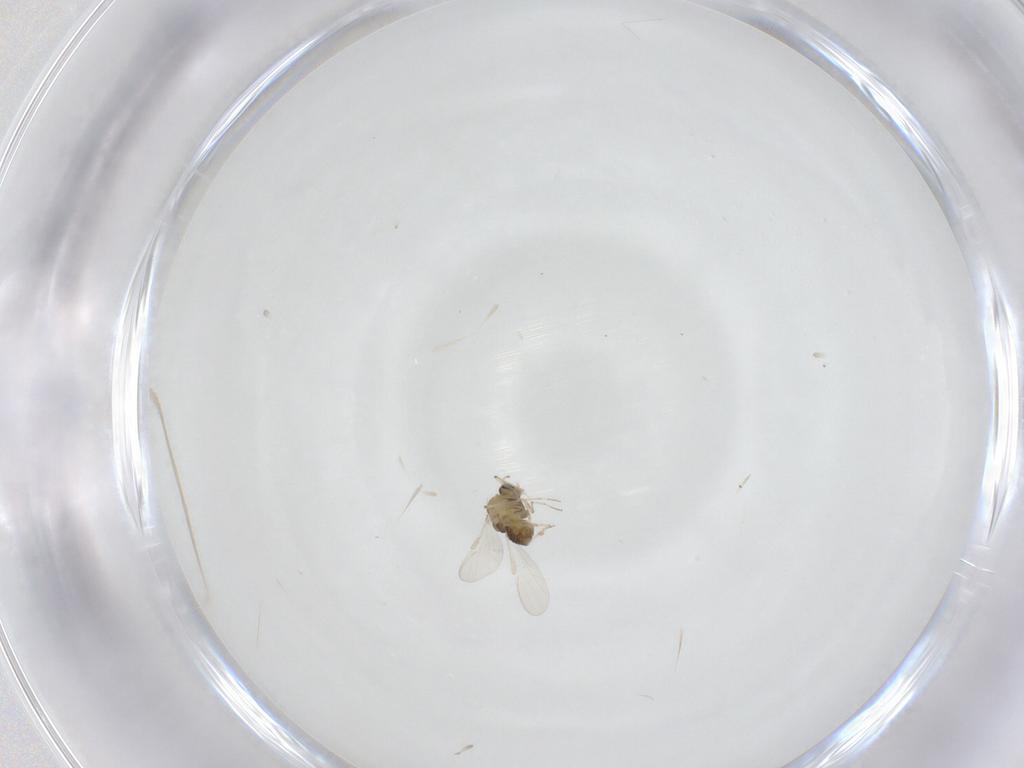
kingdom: Animalia
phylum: Arthropoda
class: Insecta
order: Diptera
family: Chironomidae
